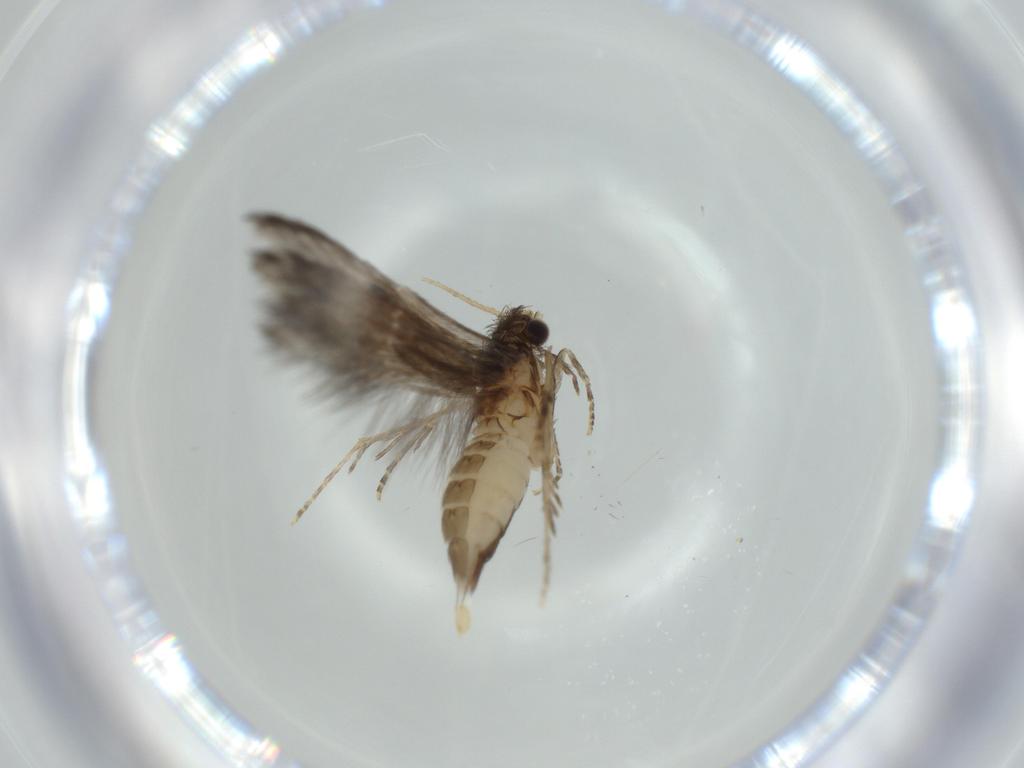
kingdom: Animalia
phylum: Arthropoda
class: Insecta
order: Trichoptera
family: Hydroptilidae
